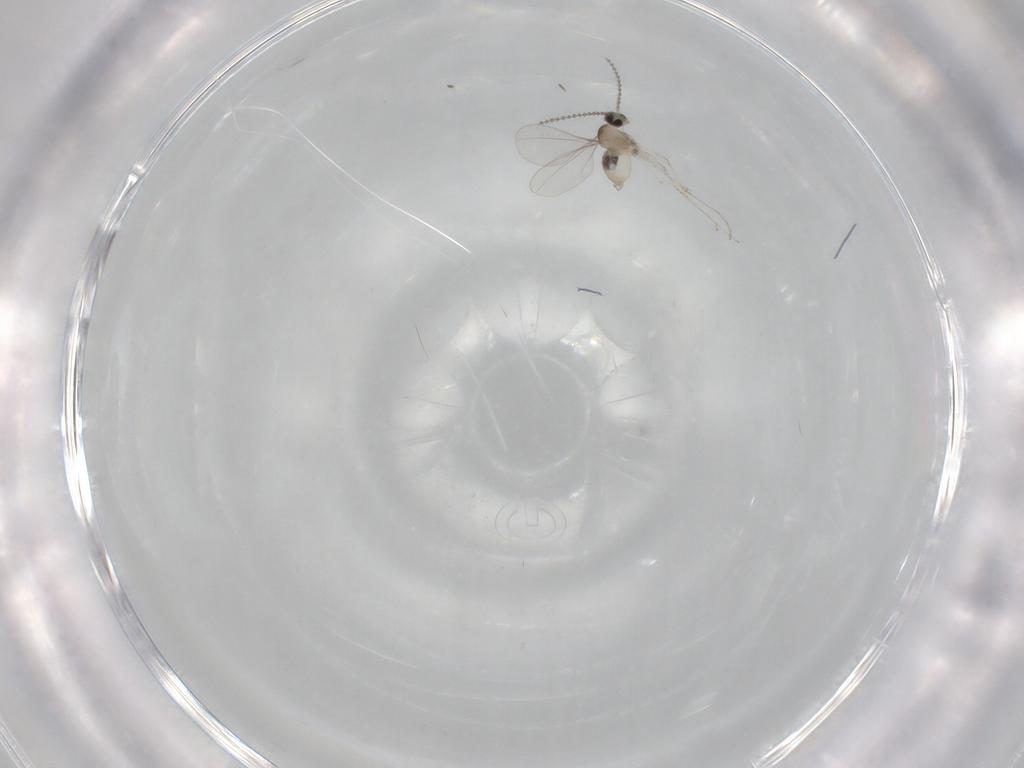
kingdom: Animalia
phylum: Arthropoda
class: Insecta
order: Diptera
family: Cecidomyiidae
